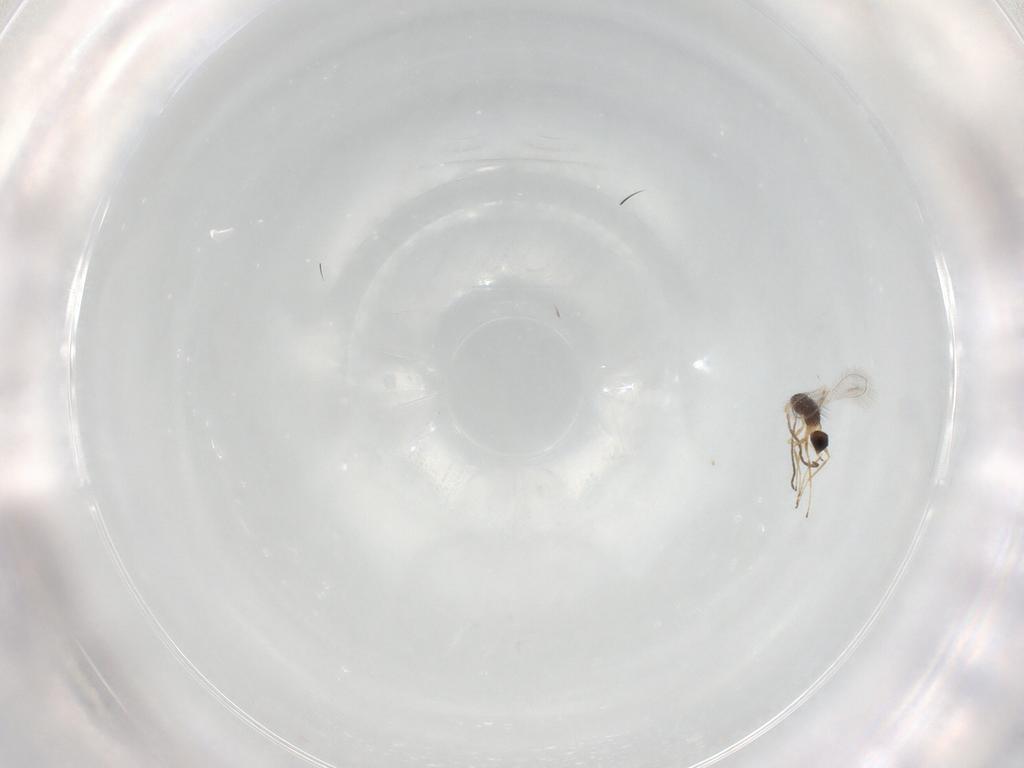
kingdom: Animalia
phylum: Arthropoda
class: Insecta
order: Hymenoptera
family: Mymaridae
